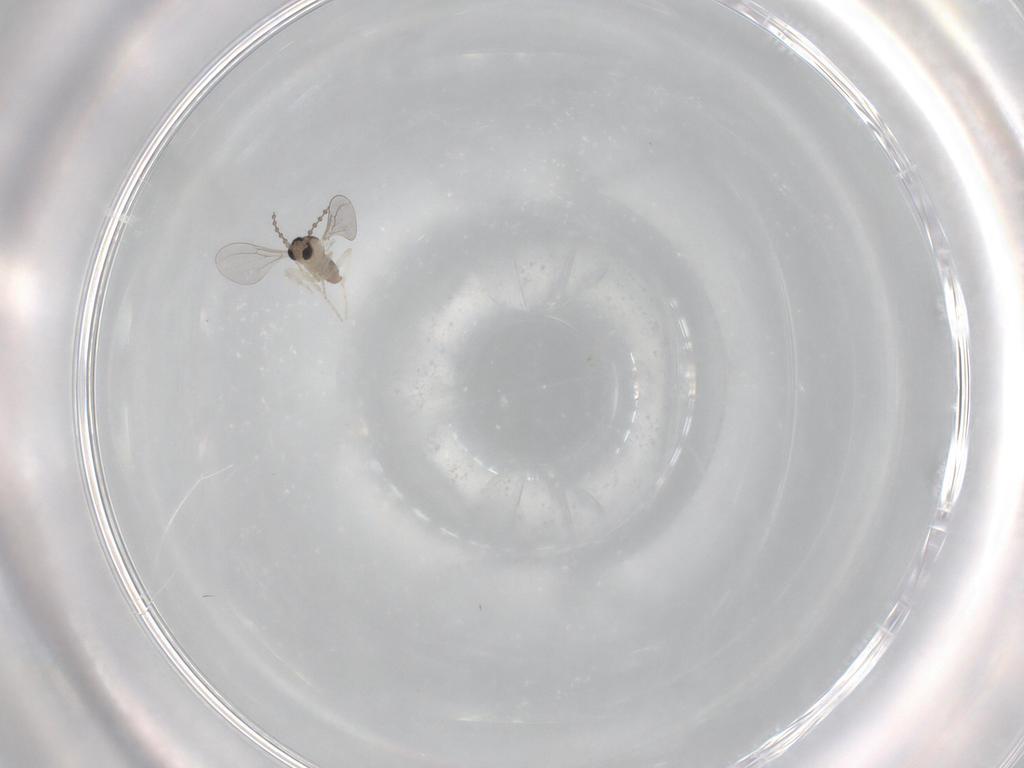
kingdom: Animalia
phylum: Arthropoda
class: Insecta
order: Diptera
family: Cecidomyiidae
